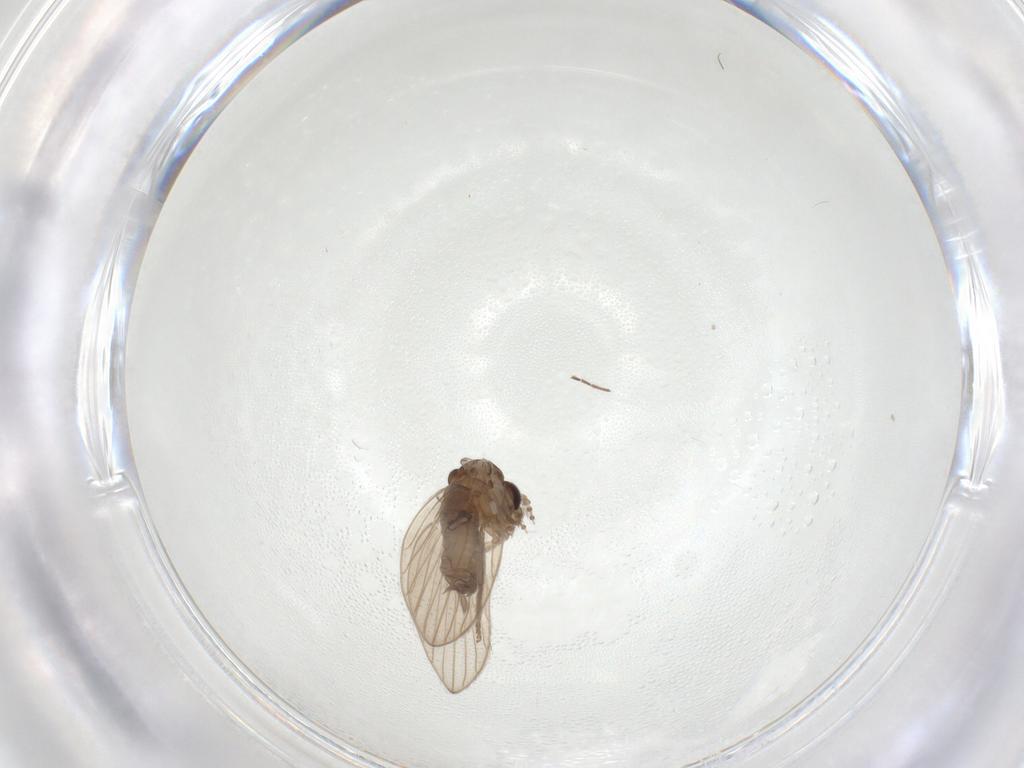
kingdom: Animalia
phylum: Arthropoda
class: Insecta
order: Diptera
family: Psychodidae
